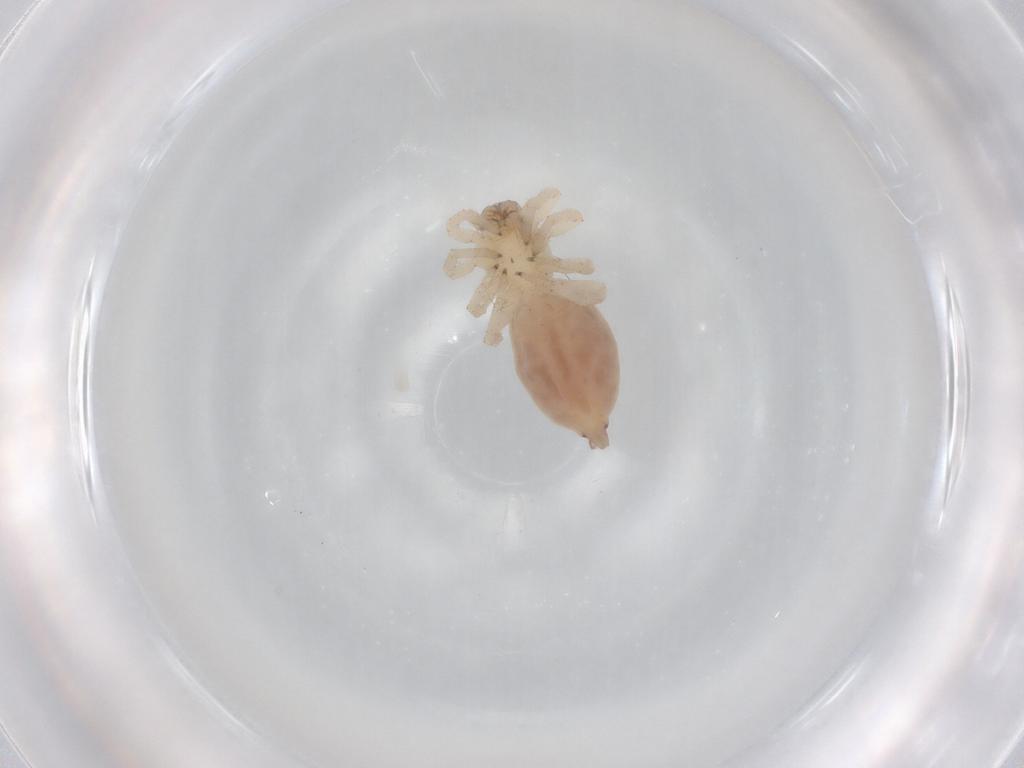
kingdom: Animalia
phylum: Arthropoda
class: Arachnida
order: Araneae
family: Clubionidae
